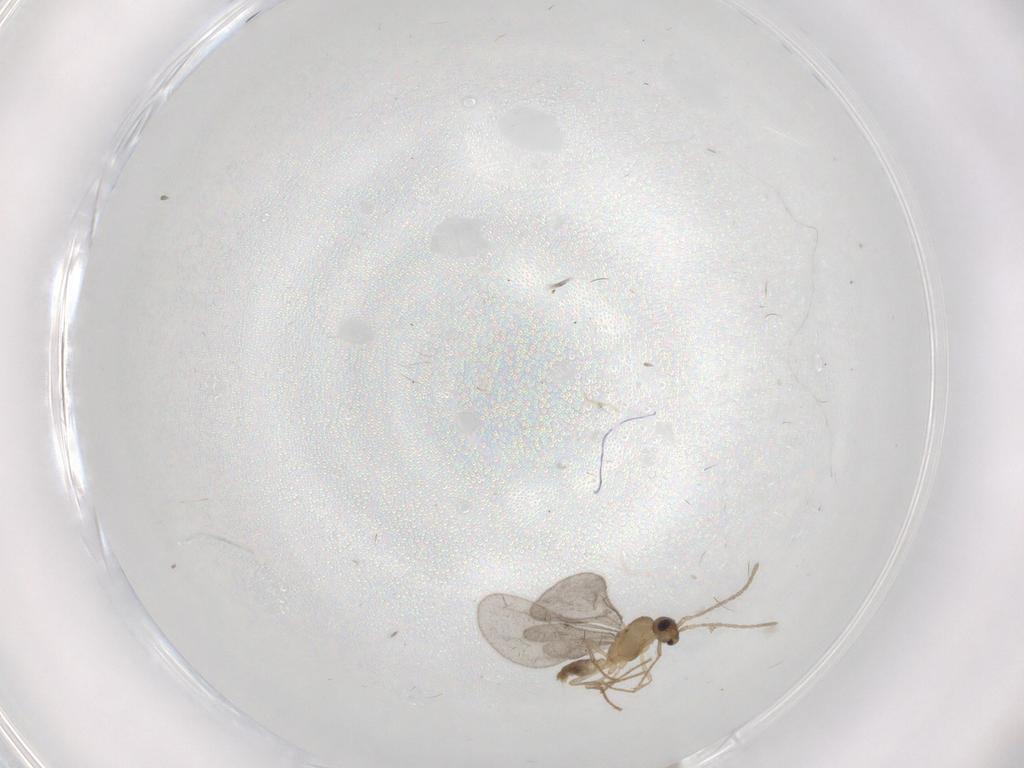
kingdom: Animalia
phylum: Arthropoda
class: Insecta
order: Hymenoptera
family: Formicidae
